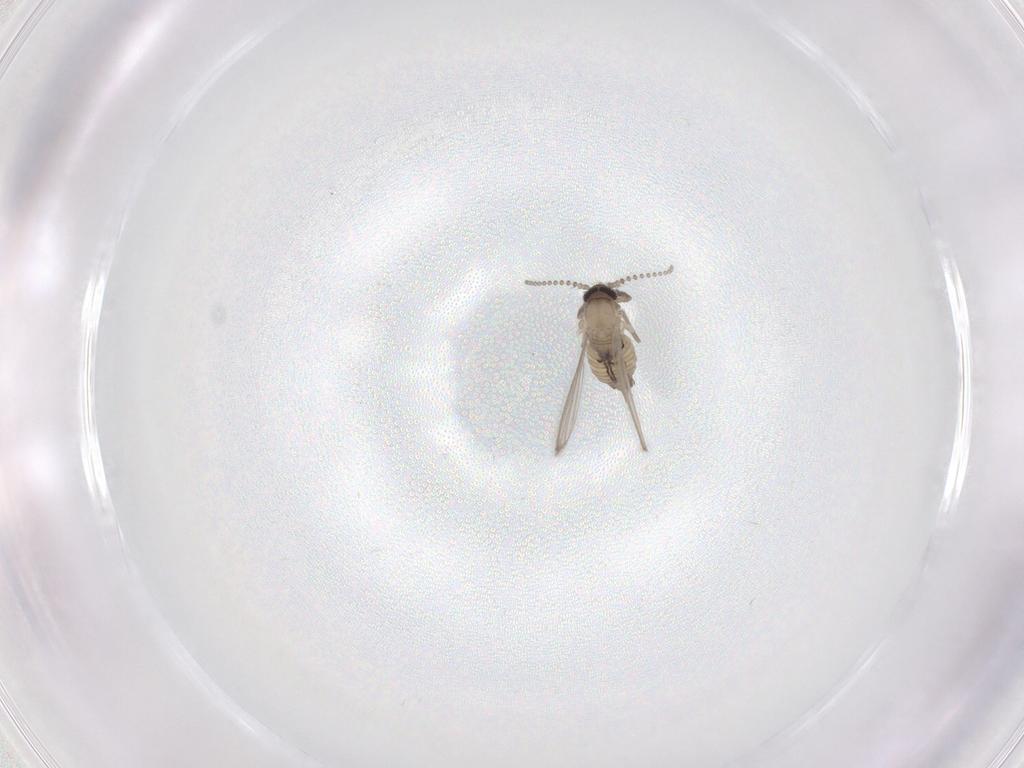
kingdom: Animalia
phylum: Arthropoda
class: Insecta
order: Diptera
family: Psychodidae
